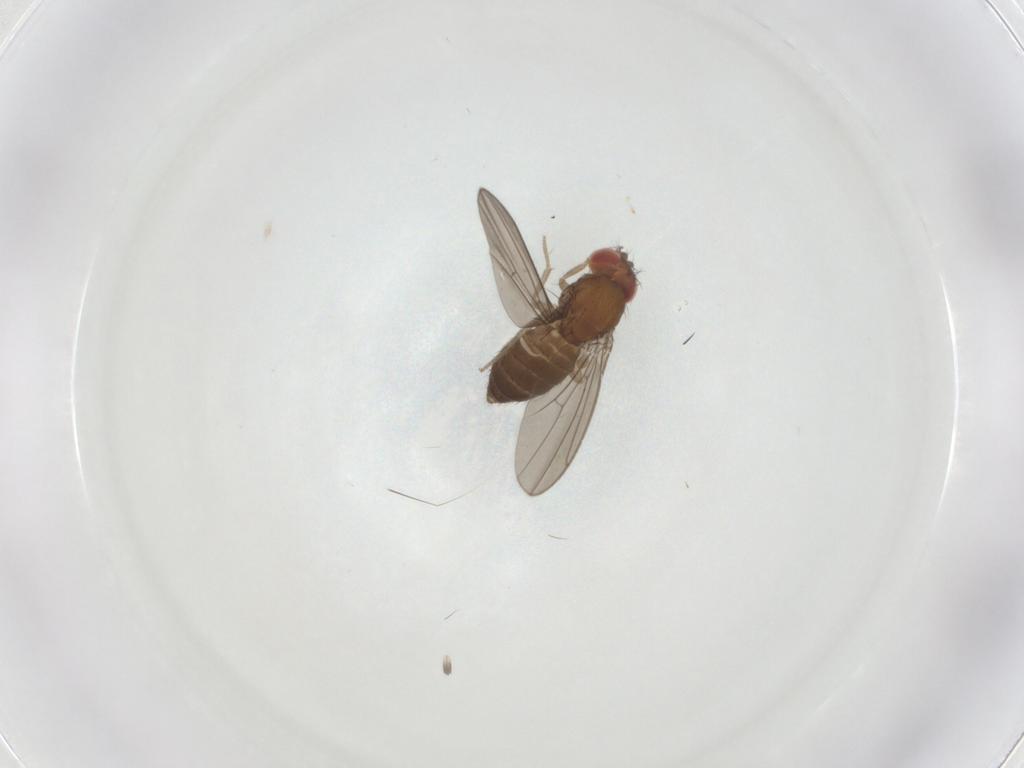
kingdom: Animalia
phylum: Arthropoda
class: Insecta
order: Diptera
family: Drosophilidae
